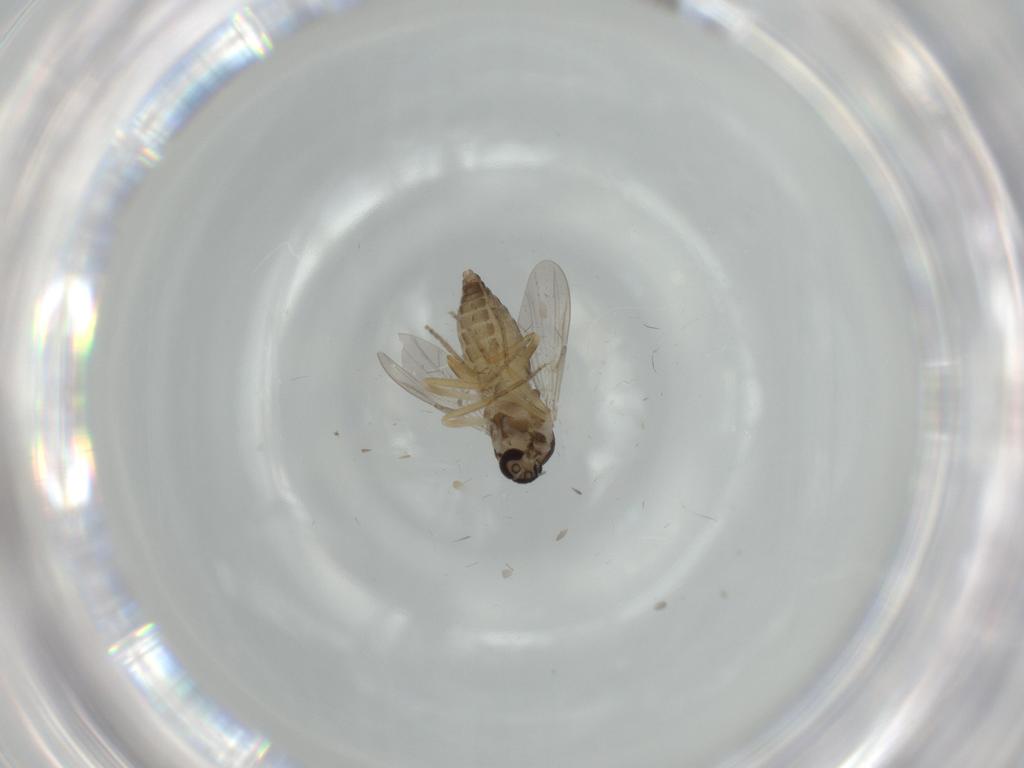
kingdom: Animalia
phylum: Arthropoda
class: Insecta
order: Diptera
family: Ceratopogonidae
